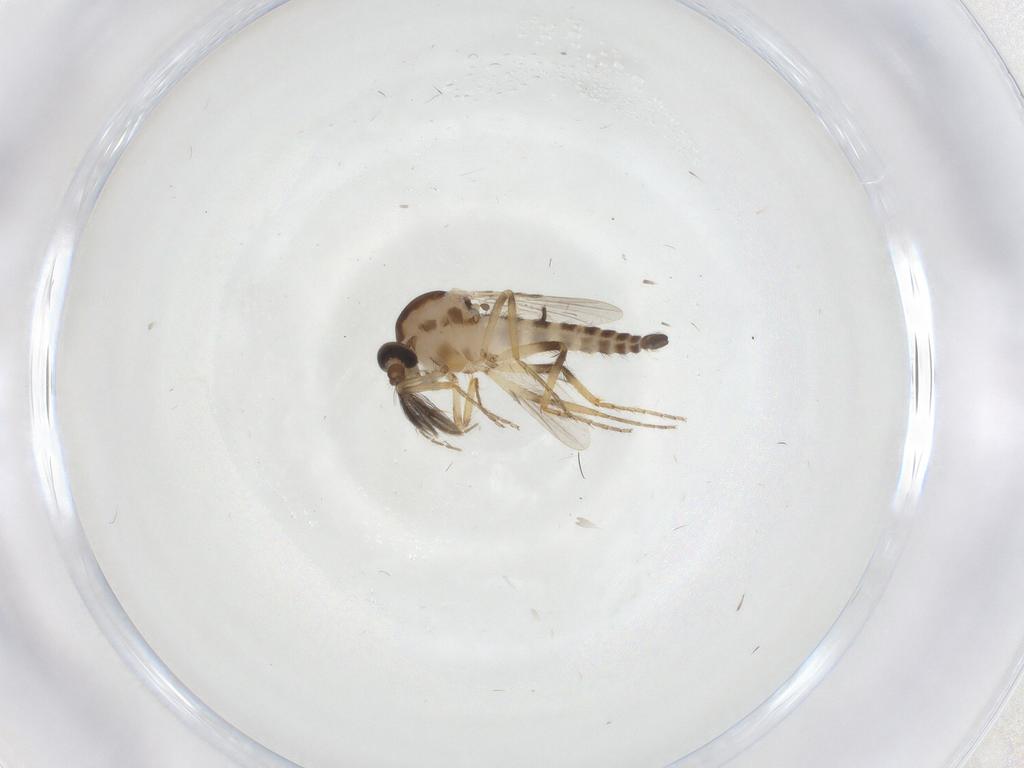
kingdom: Animalia
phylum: Arthropoda
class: Insecta
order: Diptera
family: Ceratopogonidae
